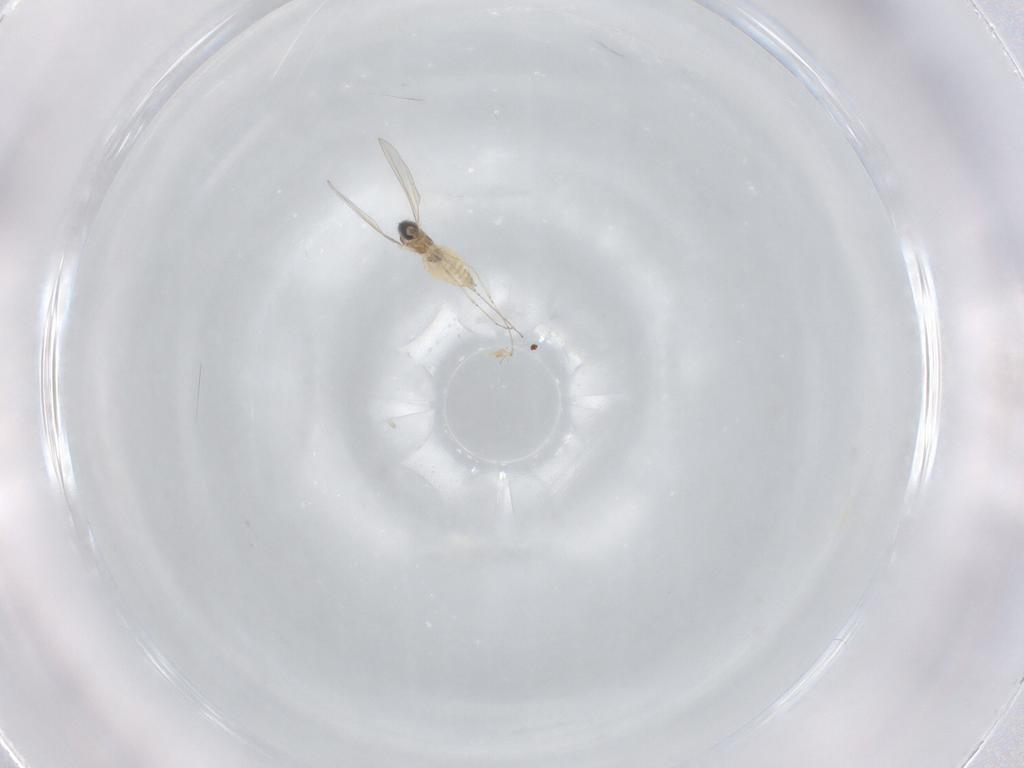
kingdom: Animalia
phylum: Arthropoda
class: Insecta
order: Diptera
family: Cecidomyiidae
